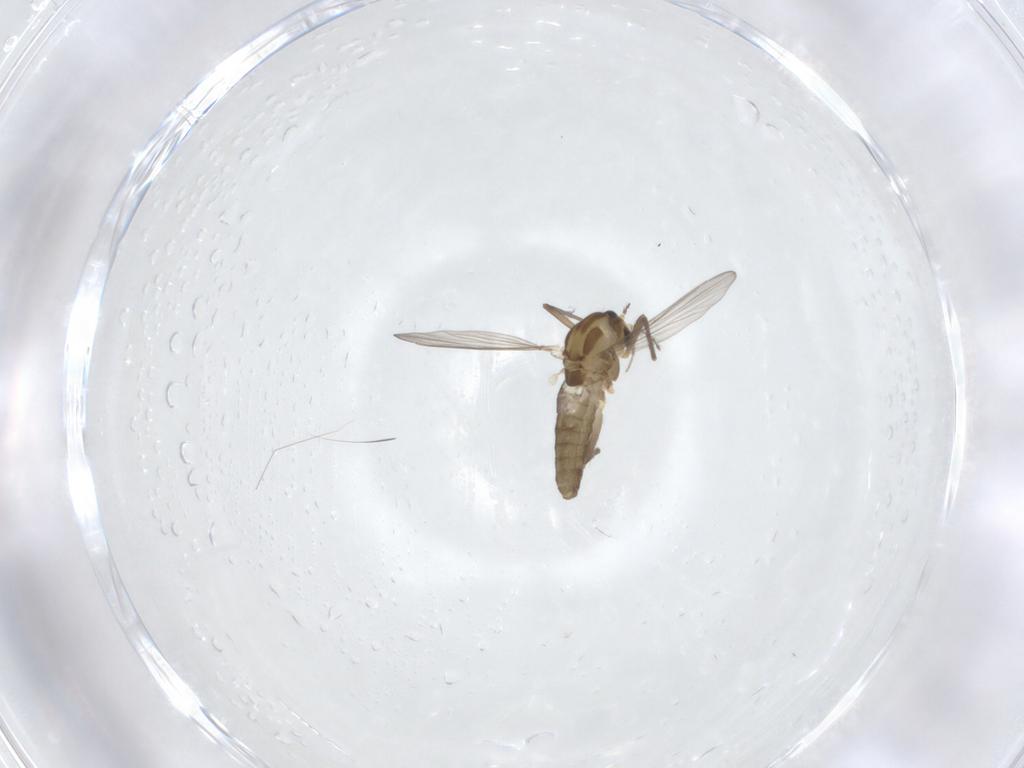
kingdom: Animalia
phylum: Arthropoda
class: Insecta
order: Diptera
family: Chironomidae
